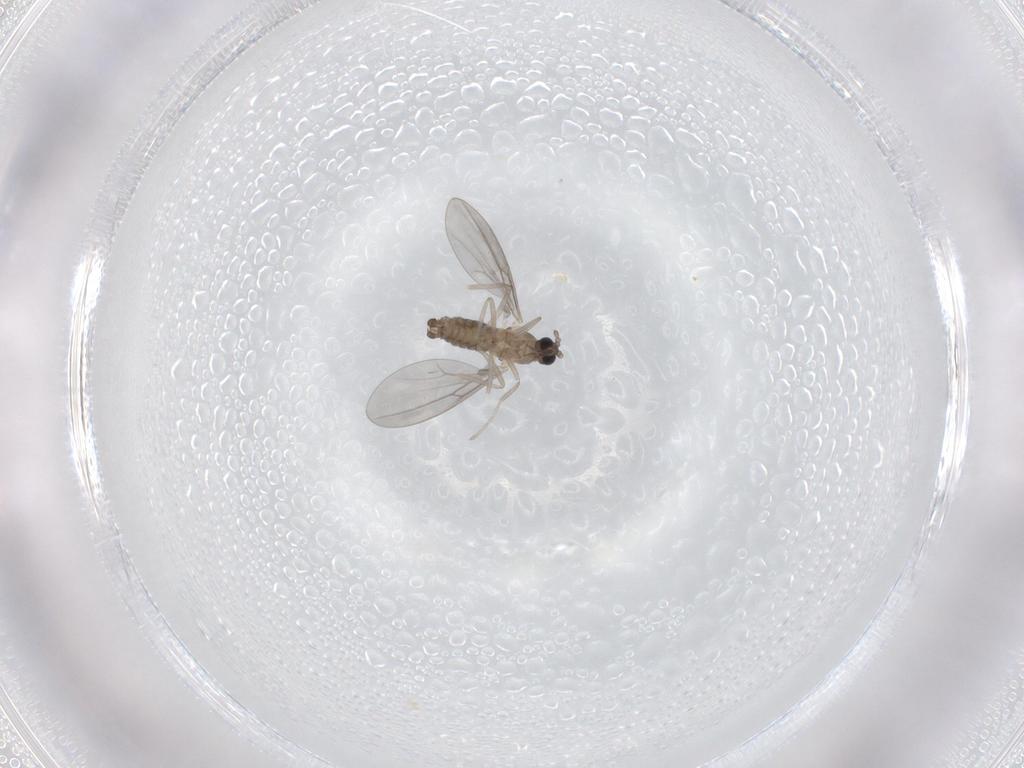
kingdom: Animalia
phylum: Arthropoda
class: Insecta
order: Diptera
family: Cecidomyiidae
